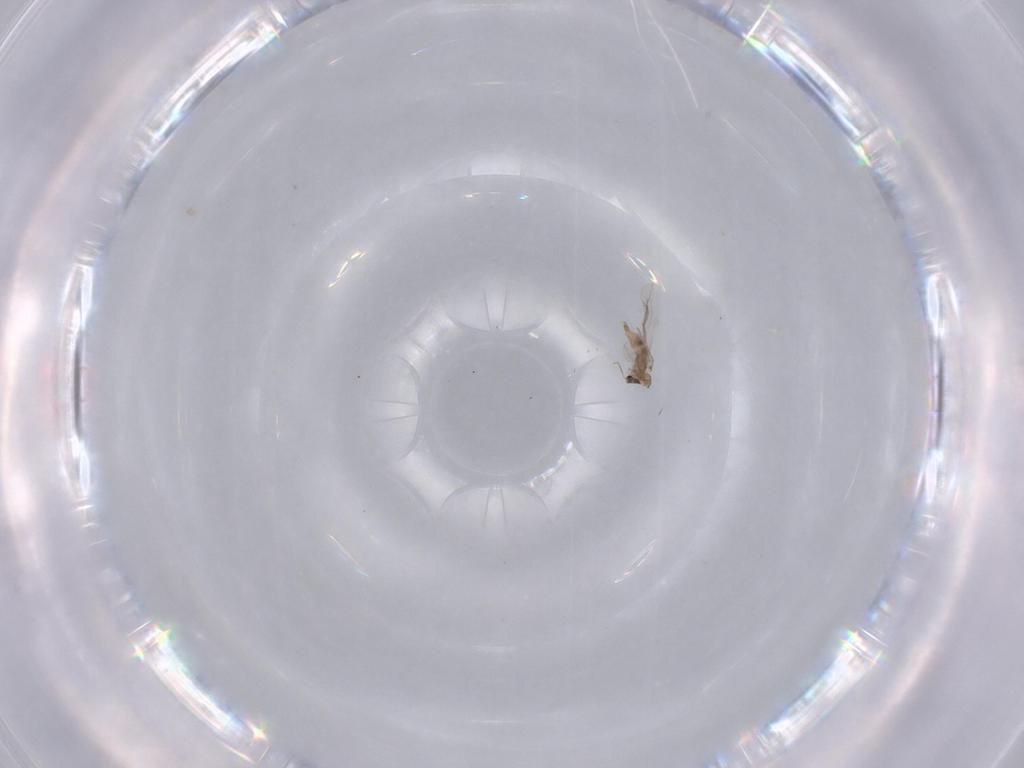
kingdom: Animalia
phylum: Arthropoda
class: Insecta
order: Diptera
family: Cecidomyiidae
